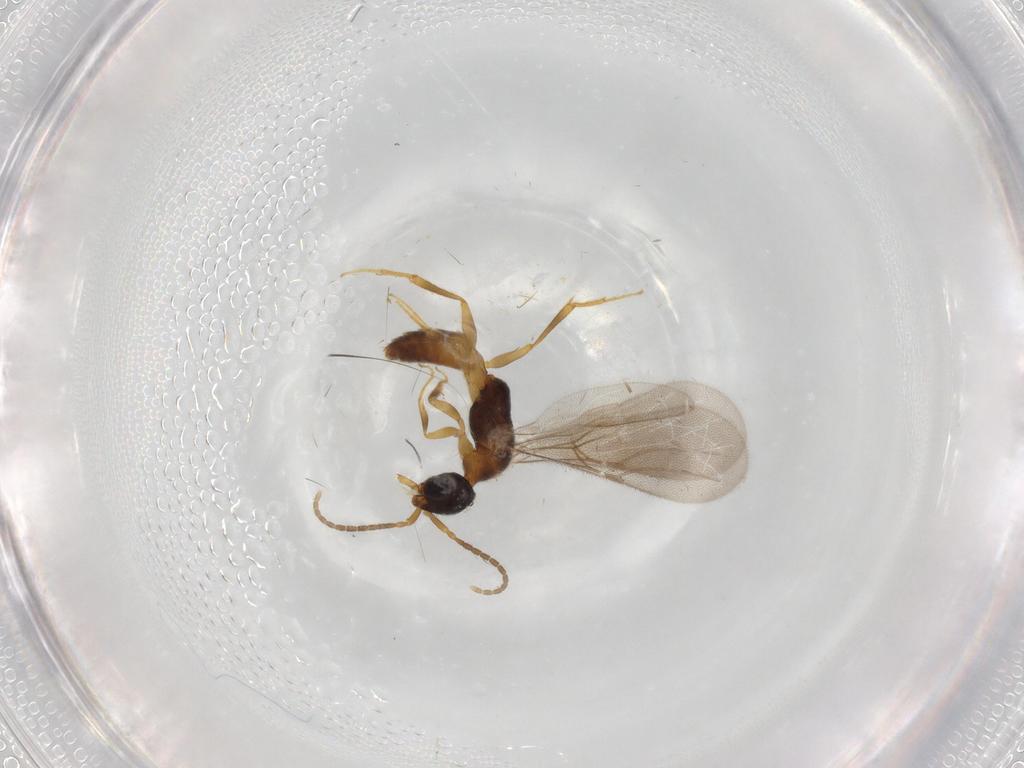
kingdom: Animalia
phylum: Arthropoda
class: Insecta
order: Hymenoptera
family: Bethylidae
